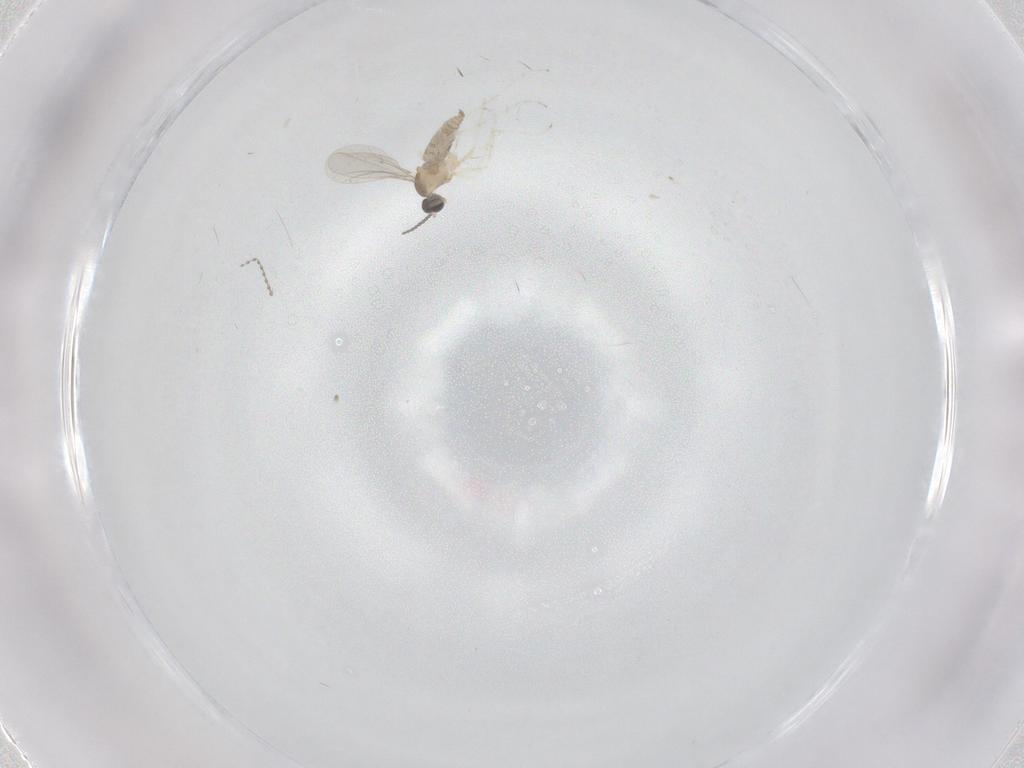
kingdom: Animalia
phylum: Arthropoda
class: Insecta
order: Diptera
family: Cecidomyiidae
